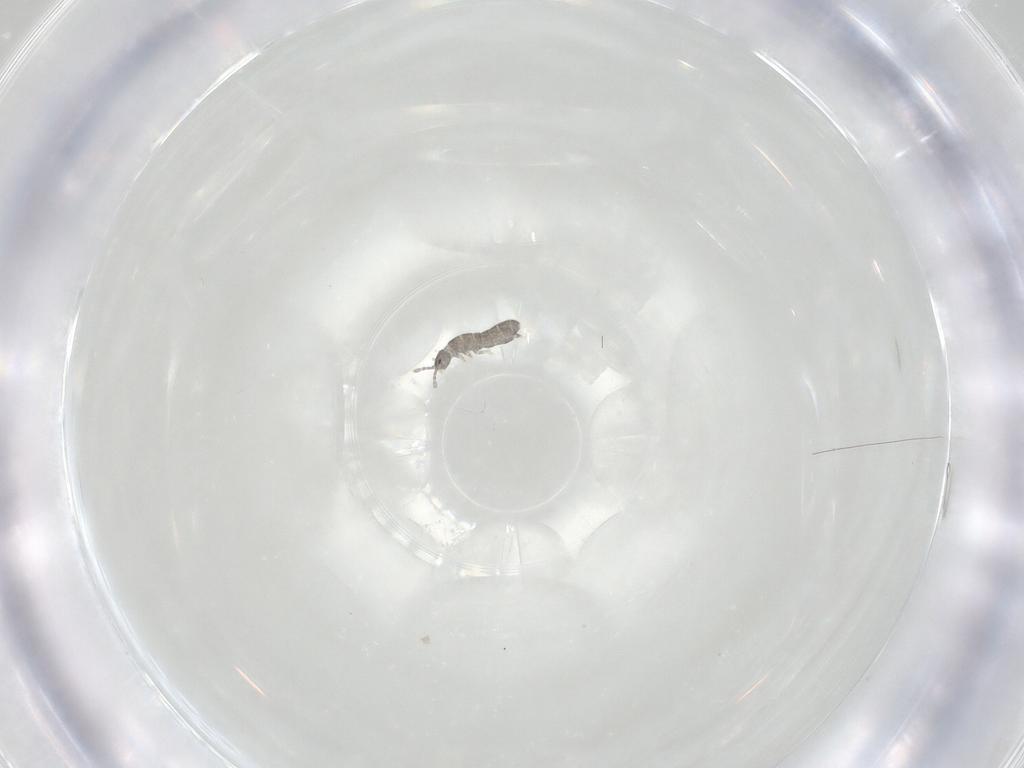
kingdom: Animalia
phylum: Arthropoda
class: Collembola
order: Entomobryomorpha
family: Isotomidae
